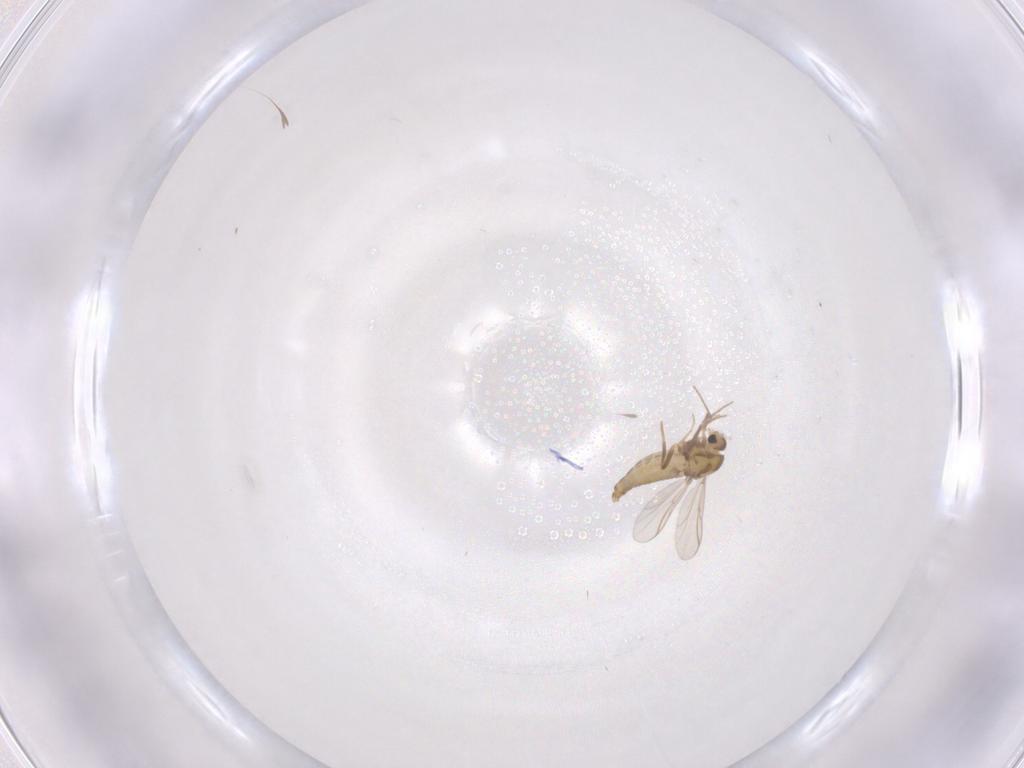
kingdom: Animalia
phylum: Arthropoda
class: Insecta
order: Diptera
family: Chironomidae
